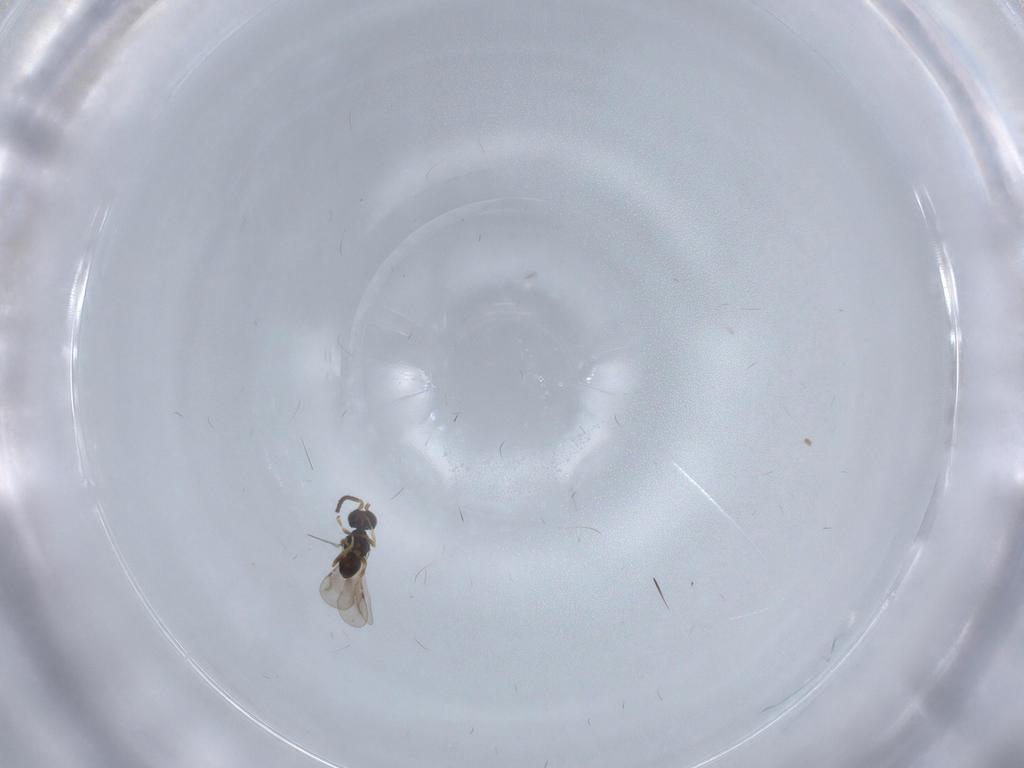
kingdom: Animalia
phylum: Arthropoda
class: Insecta
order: Hymenoptera
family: Ceraphronidae
